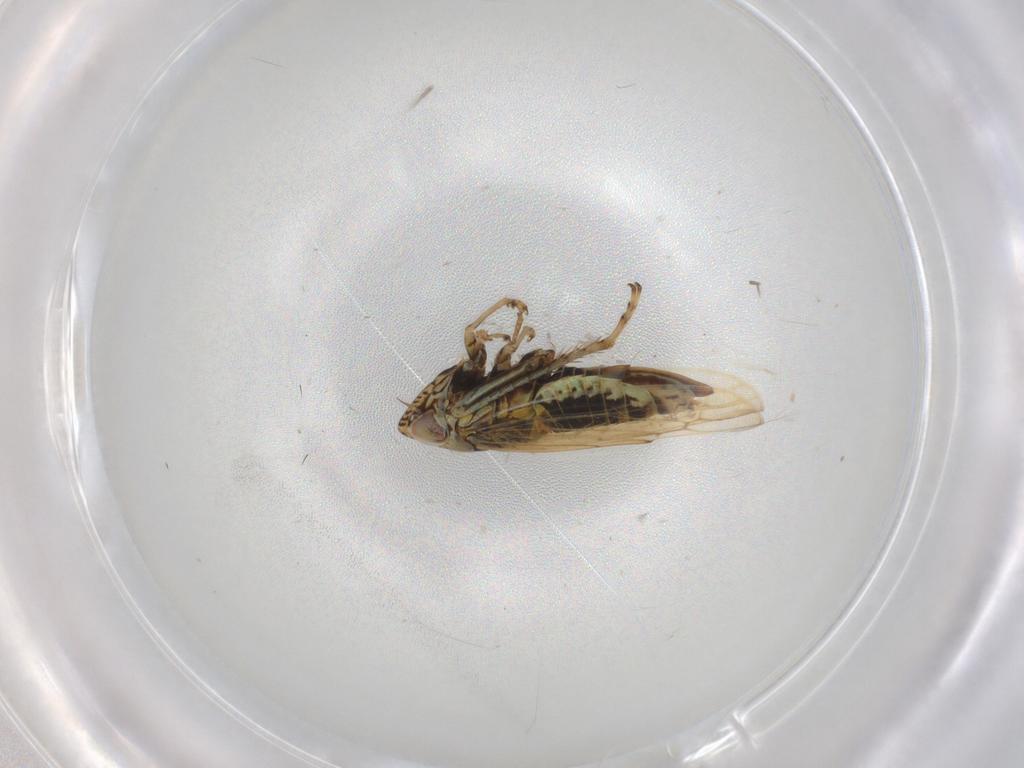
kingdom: Animalia
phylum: Arthropoda
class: Insecta
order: Hemiptera
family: Cicadellidae
